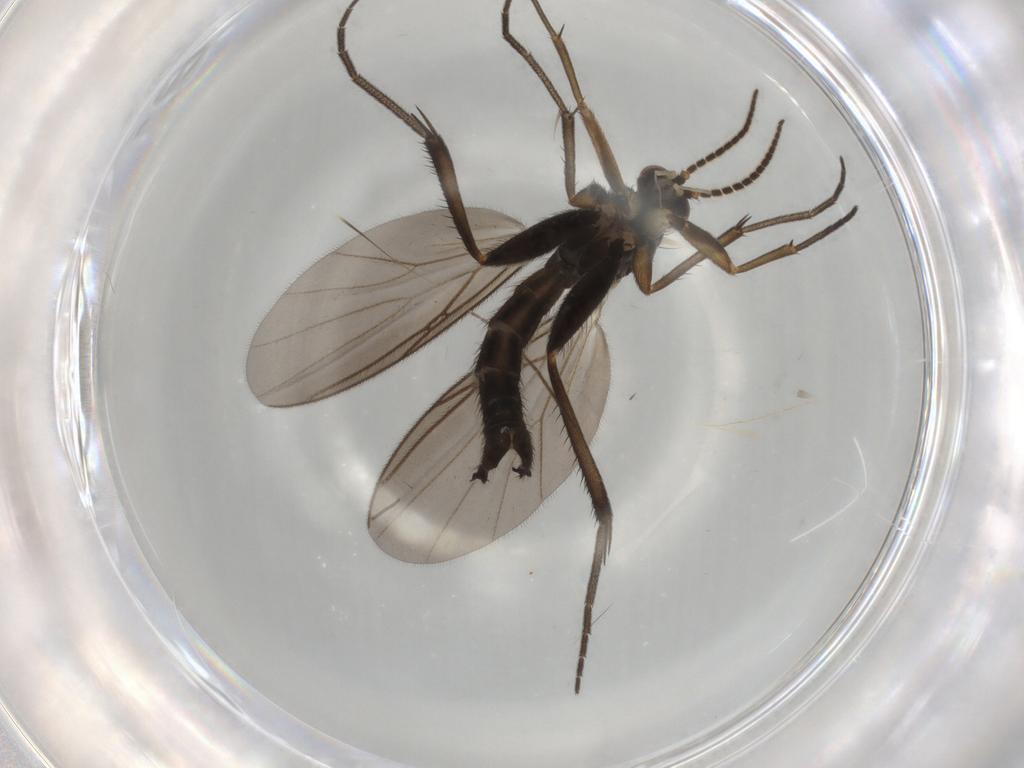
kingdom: Animalia
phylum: Arthropoda
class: Insecta
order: Diptera
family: Mycetophilidae
